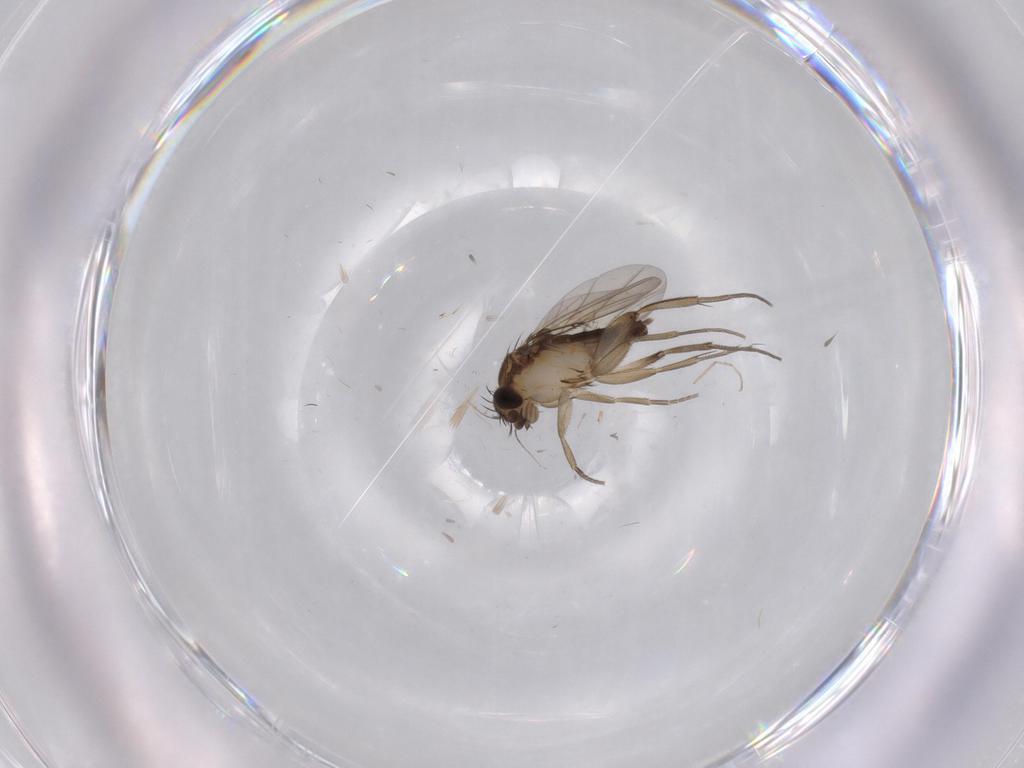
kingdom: Animalia
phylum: Arthropoda
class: Insecta
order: Diptera
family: Phoridae
